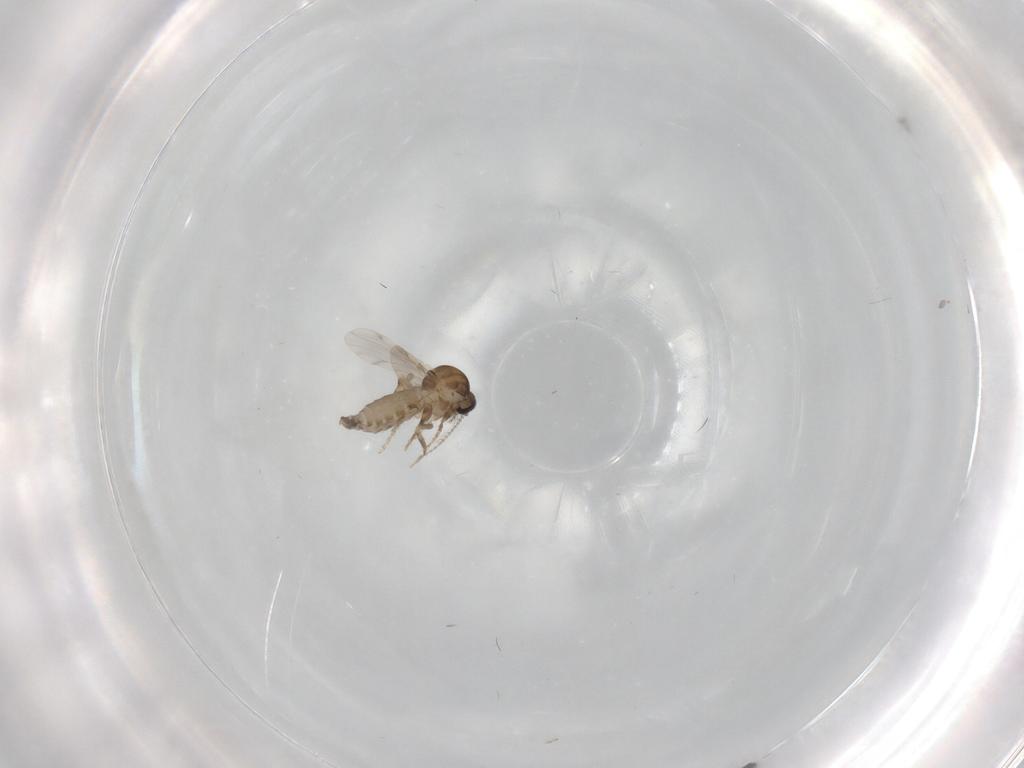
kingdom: Animalia
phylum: Arthropoda
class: Insecta
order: Diptera
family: Ceratopogonidae
